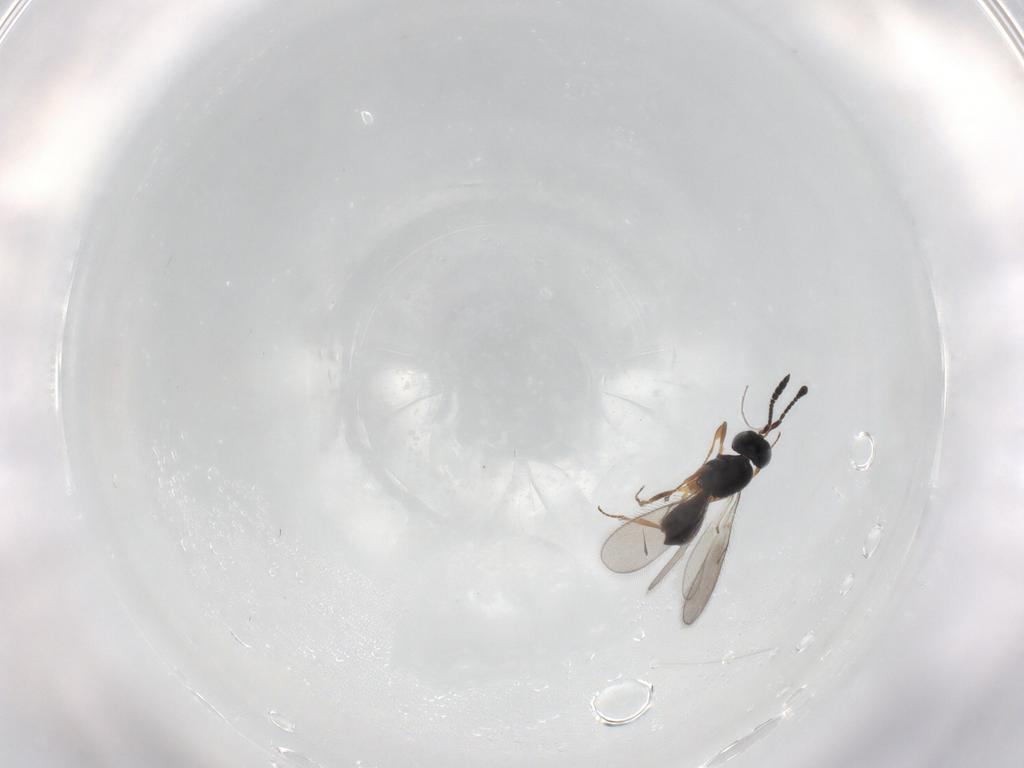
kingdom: Animalia
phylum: Arthropoda
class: Insecta
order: Hymenoptera
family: Scelionidae
